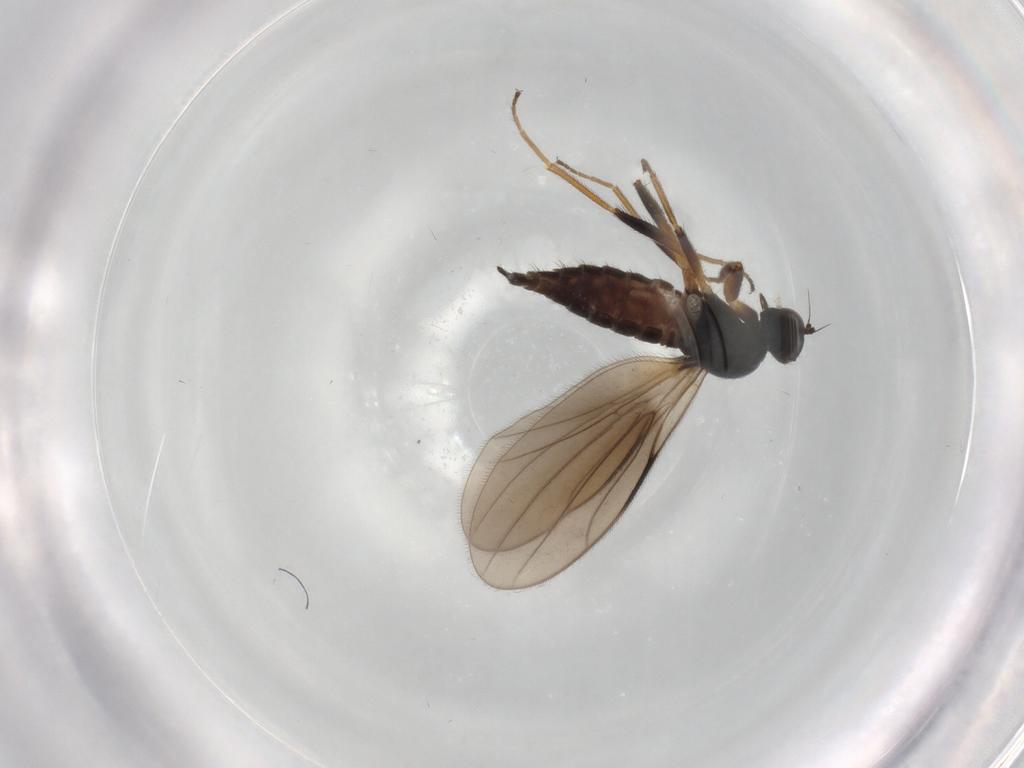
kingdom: Animalia
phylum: Arthropoda
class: Insecta
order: Diptera
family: Hybotidae
